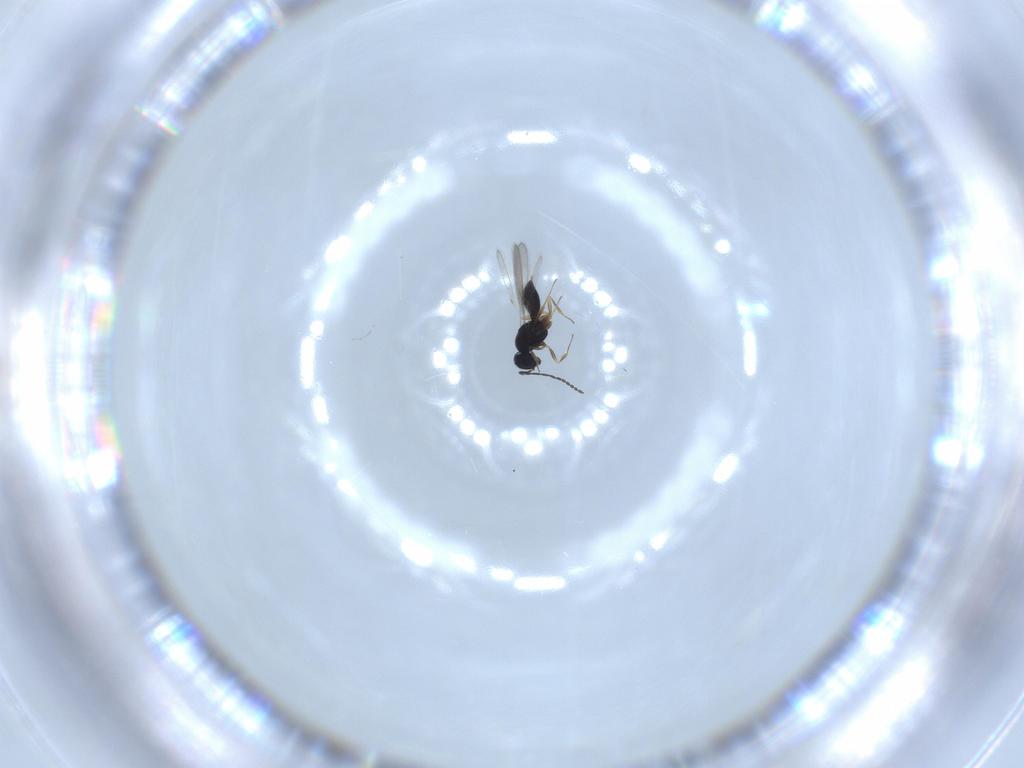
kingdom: Animalia
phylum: Arthropoda
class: Insecta
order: Hymenoptera
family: Scelionidae
